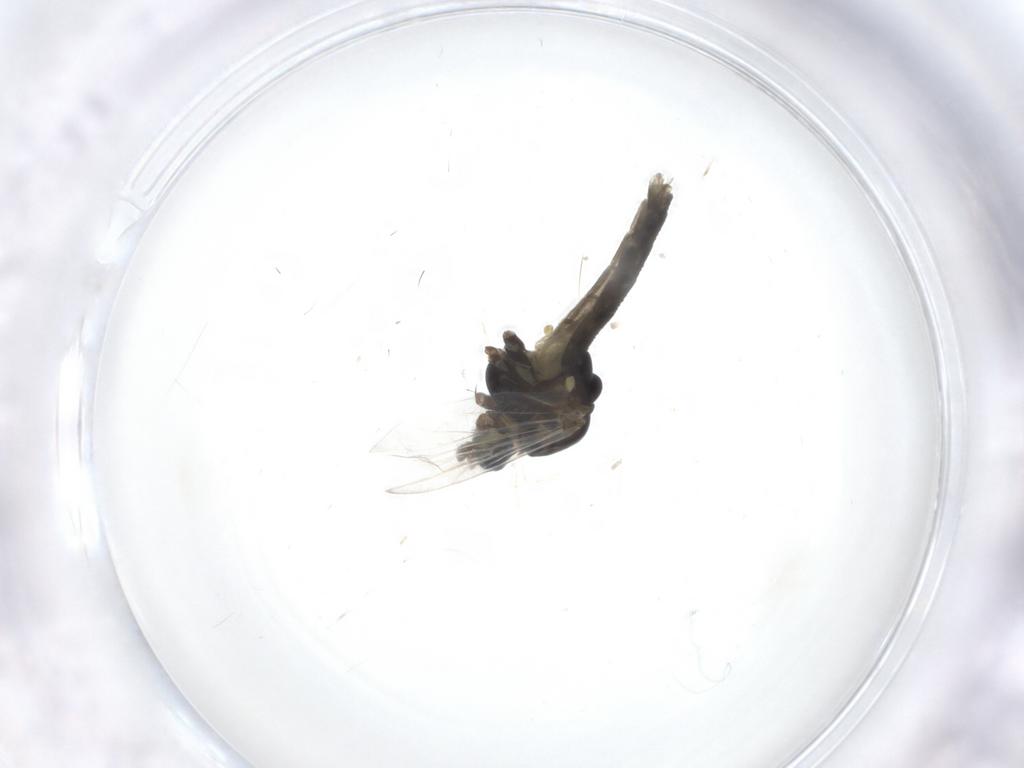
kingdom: Animalia
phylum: Arthropoda
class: Insecta
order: Diptera
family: Chironomidae
